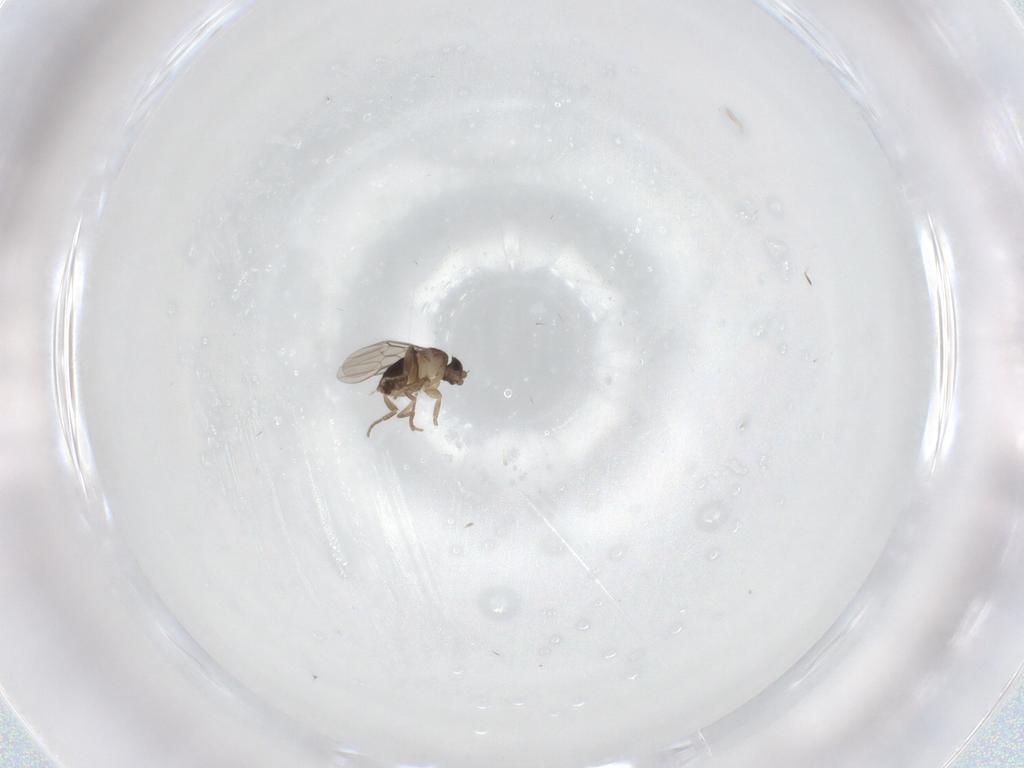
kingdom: Animalia
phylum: Arthropoda
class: Insecta
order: Diptera
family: Phoridae
